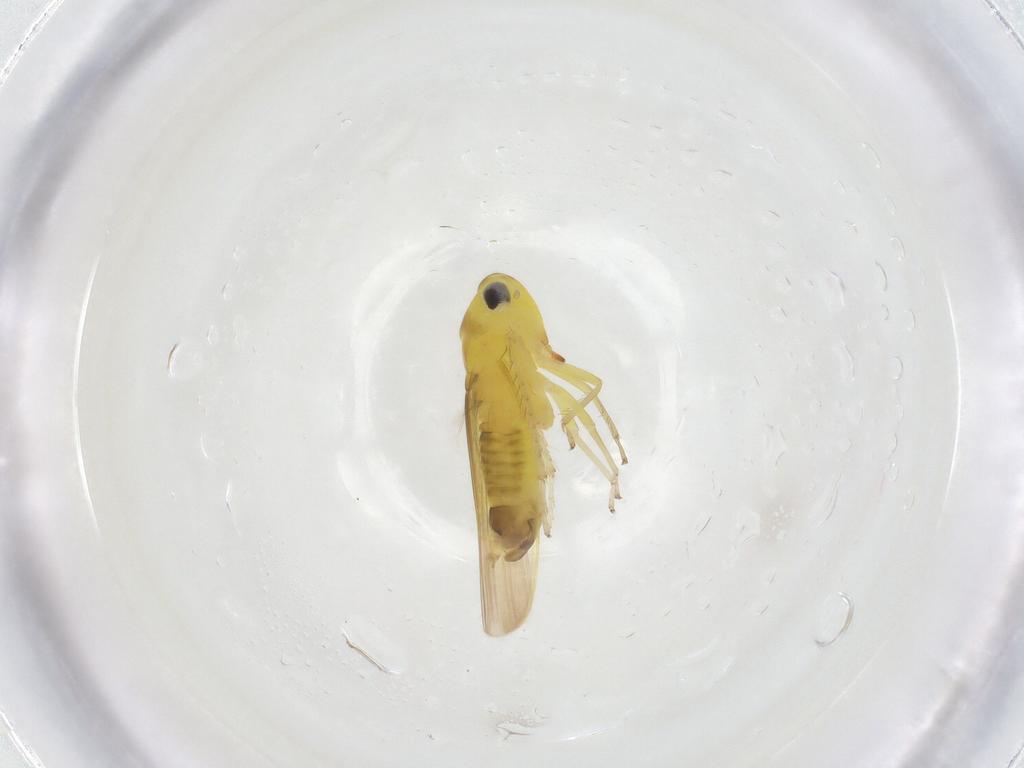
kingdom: Animalia
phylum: Arthropoda
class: Insecta
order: Hemiptera
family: Cicadellidae
